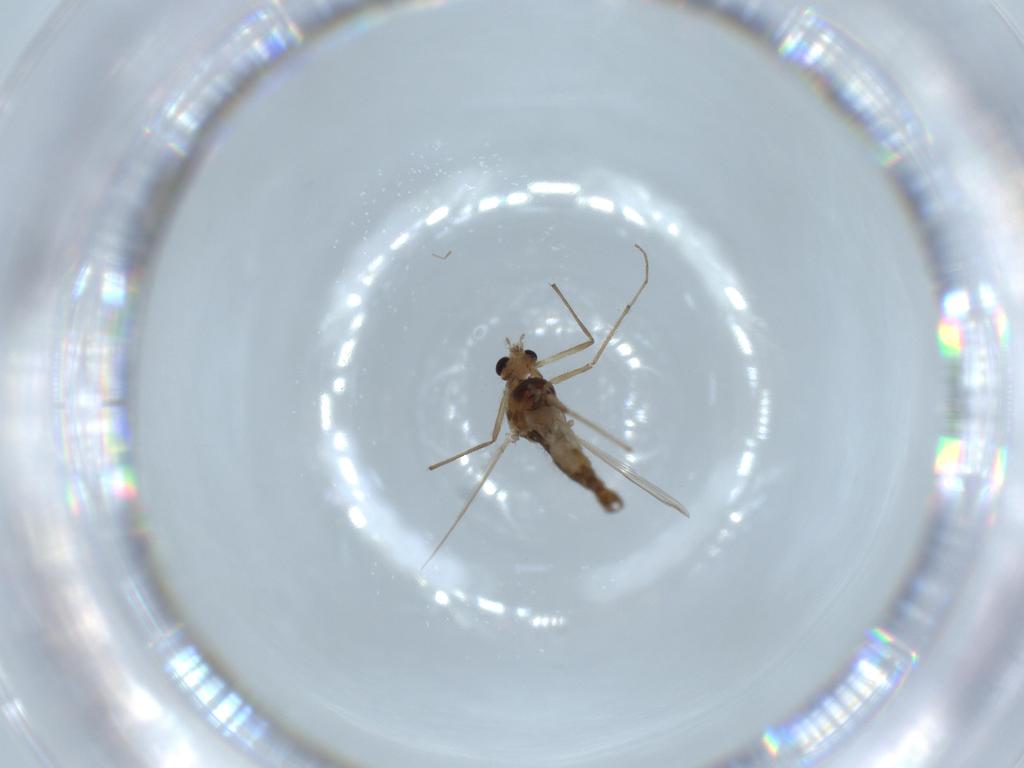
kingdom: Animalia
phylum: Arthropoda
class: Insecta
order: Diptera
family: Chironomidae
